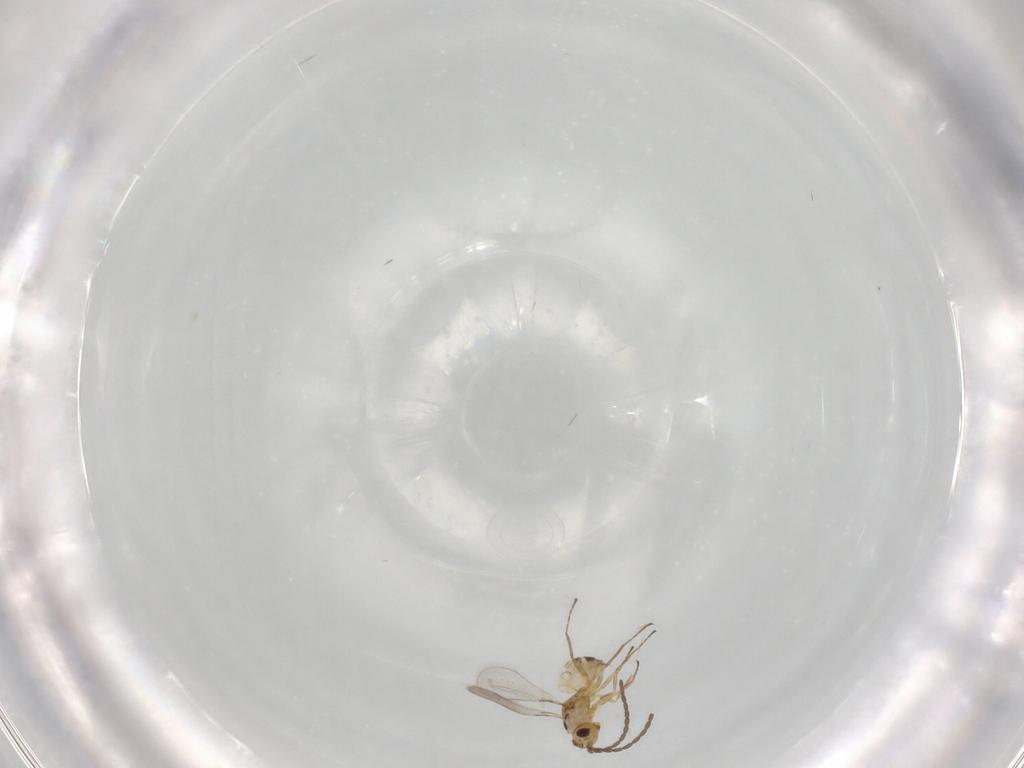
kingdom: Animalia
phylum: Arthropoda
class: Insecta
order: Hymenoptera
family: Mymaridae
